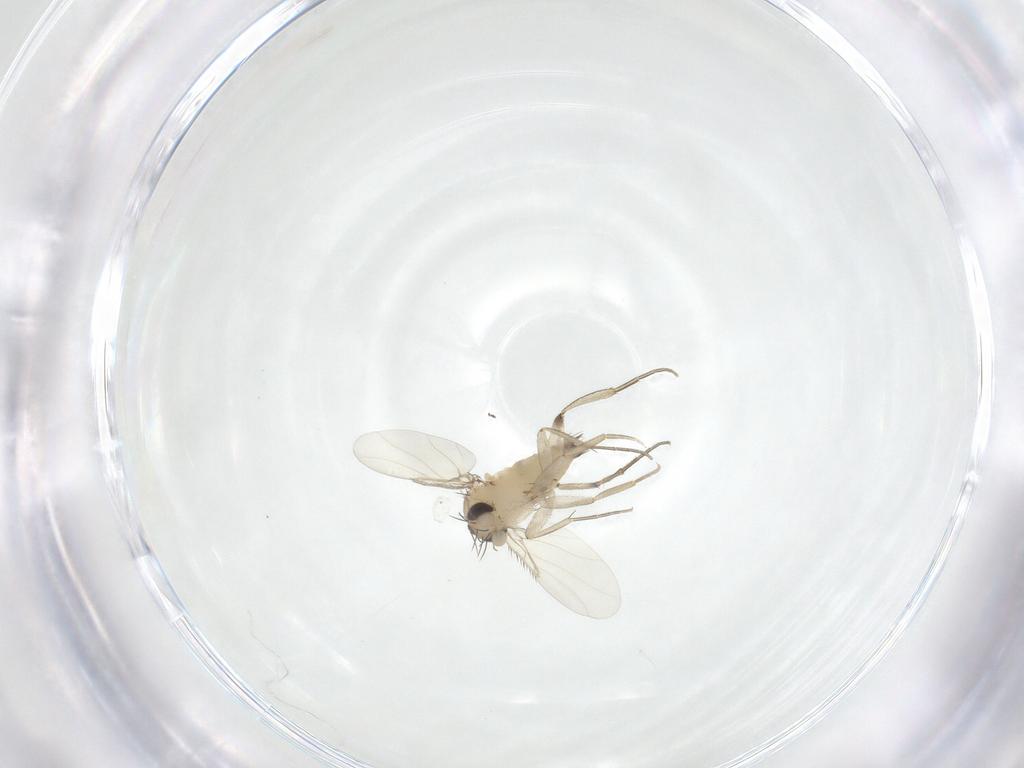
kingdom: Animalia
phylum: Arthropoda
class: Insecta
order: Diptera
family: Phoridae
